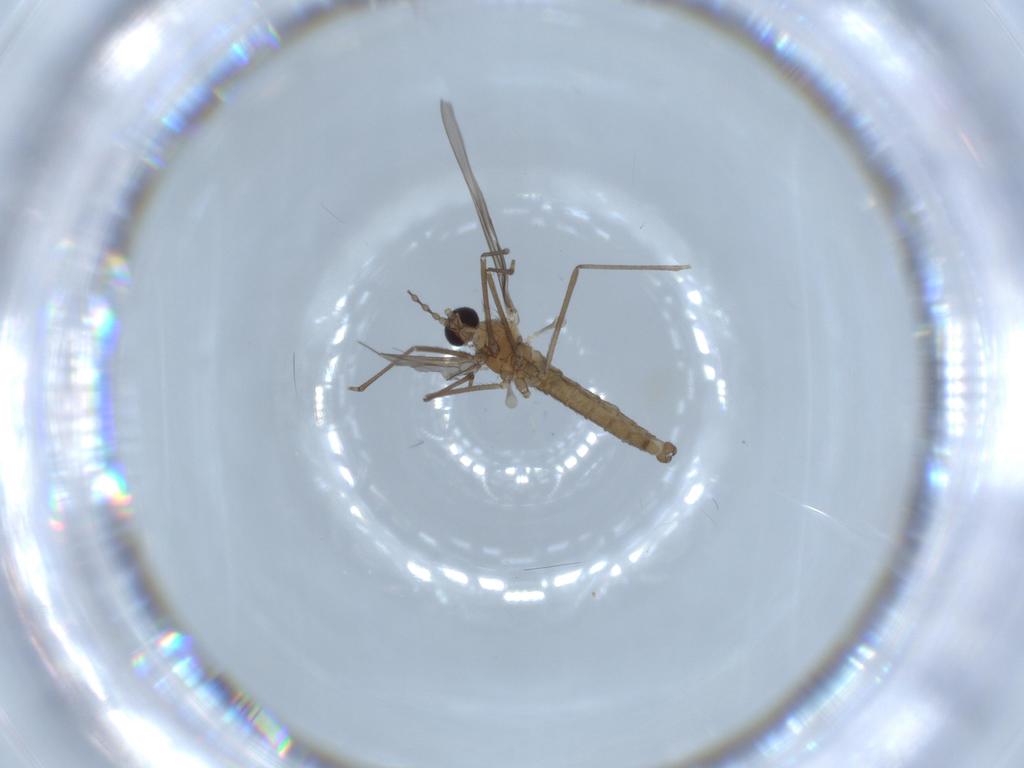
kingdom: Animalia
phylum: Arthropoda
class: Insecta
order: Diptera
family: Cecidomyiidae
